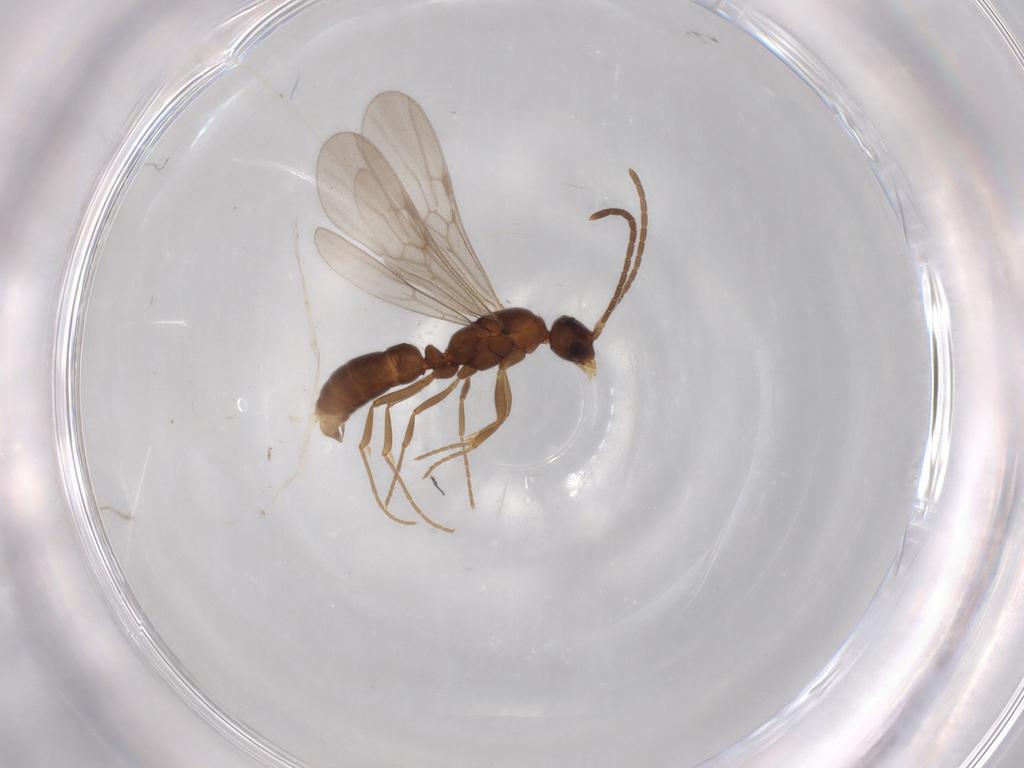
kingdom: Animalia
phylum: Arthropoda
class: Insecta
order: Hymenoptera
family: Formicidae
